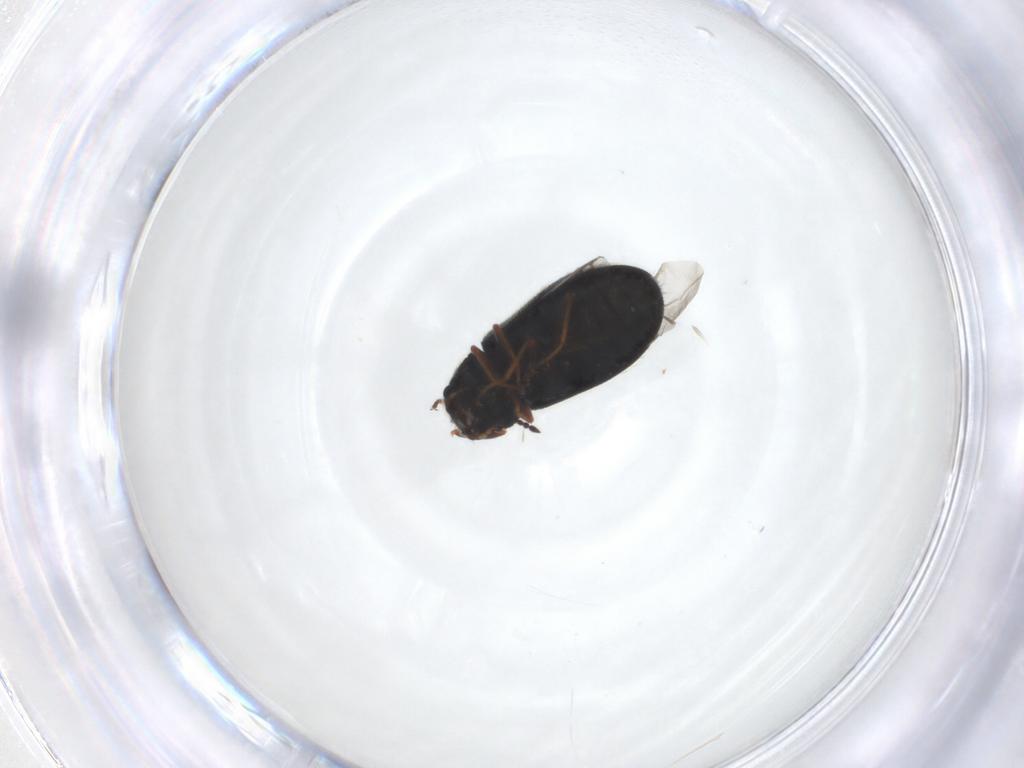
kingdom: Animalia
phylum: Arthropoda
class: Insecta
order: Coleoptera
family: Melyridae
